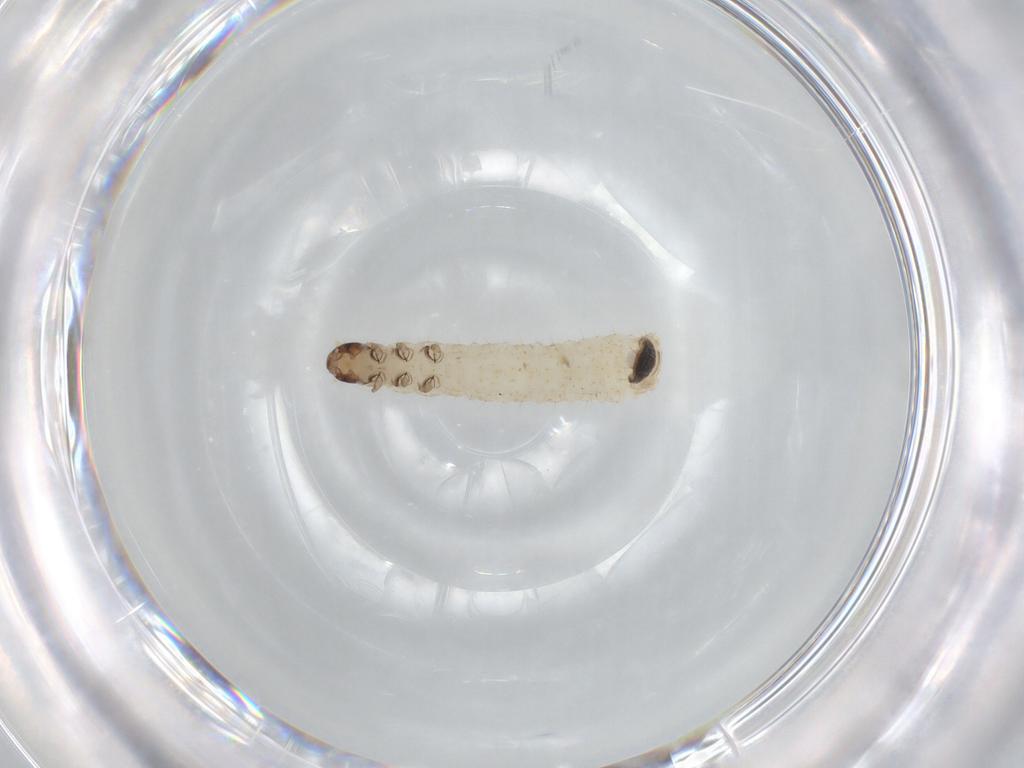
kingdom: Animalia
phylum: Arthropoda
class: Insecta
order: Coleoptera
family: Chrysomelidae
